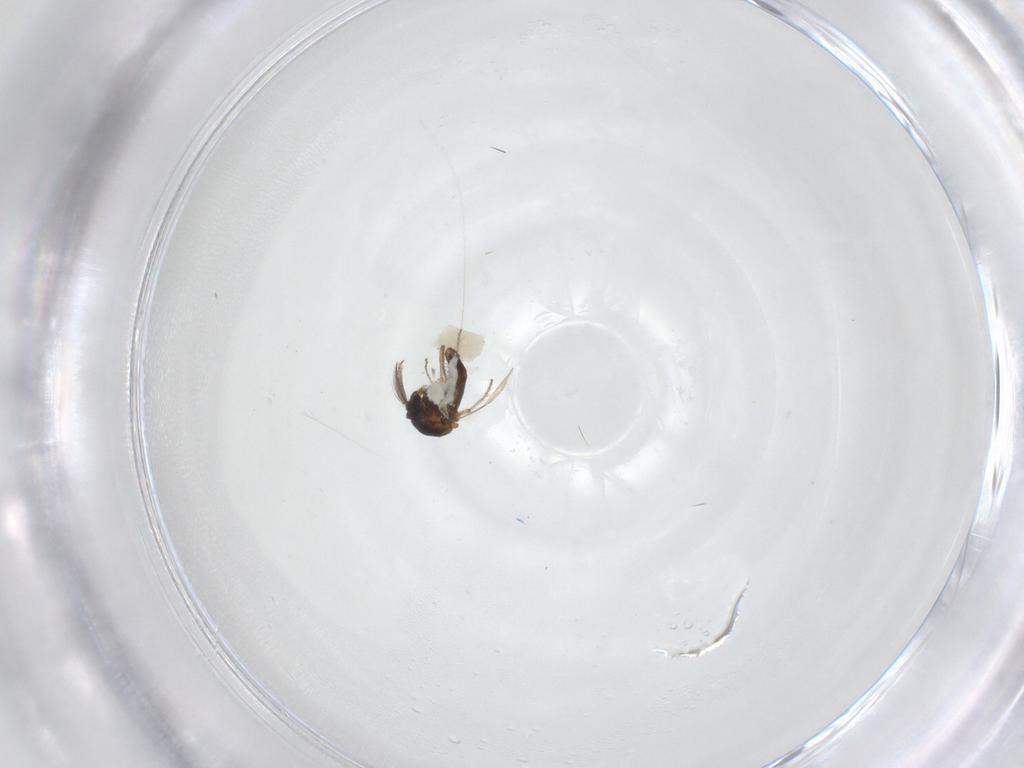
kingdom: Animalia
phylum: Arthropoda
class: Insecta
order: Diptera
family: Ceratopogonidae
